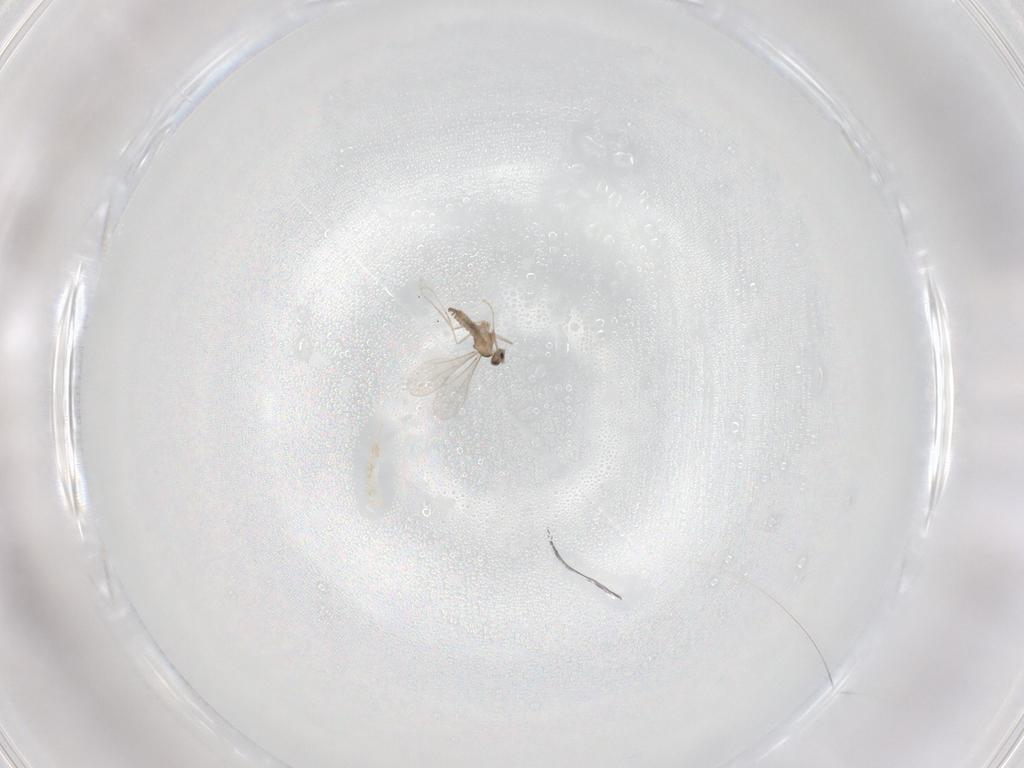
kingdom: Animalia
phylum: Arthropoda
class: Insecta
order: Diptera
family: Cecidomyiidae
